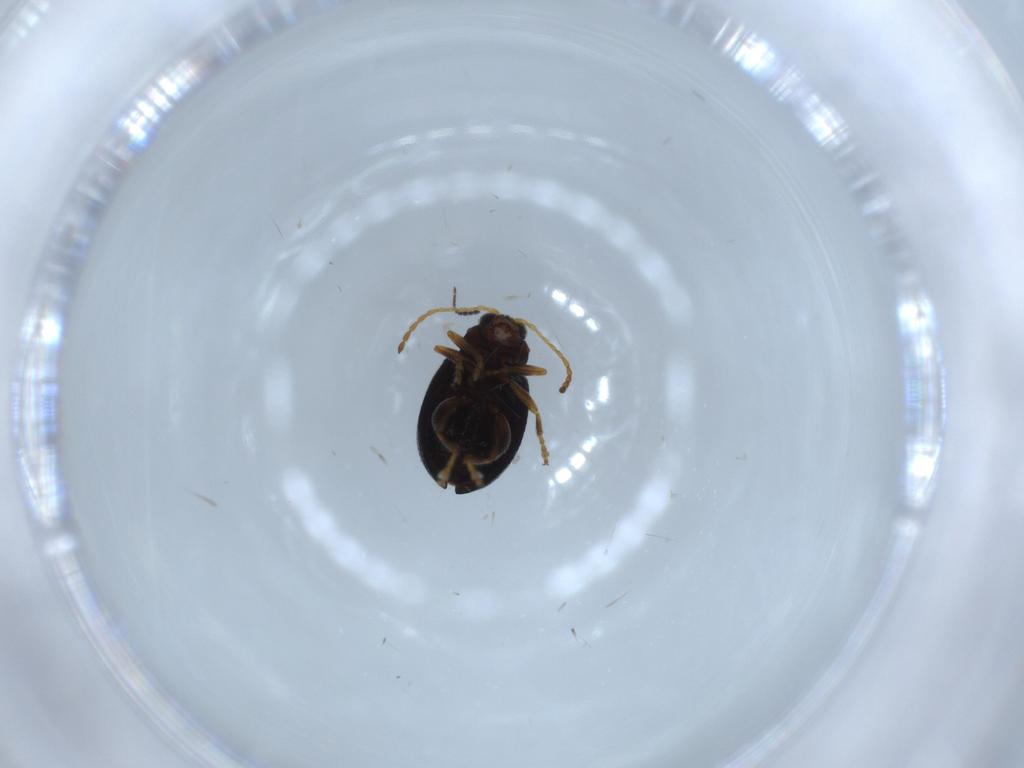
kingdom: Animalia
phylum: Arthropoda
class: Insecta
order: Coleoptera
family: Chrysomelidae
